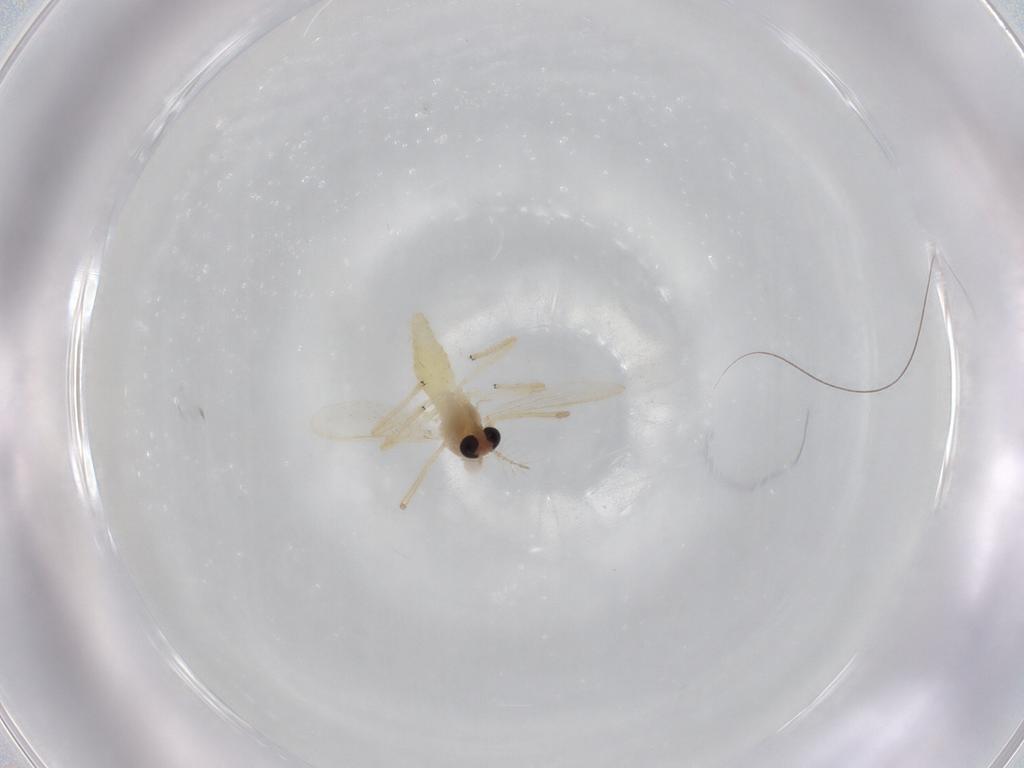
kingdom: Animalia
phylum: Arthropoda
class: Insecta
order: Diptera
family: Chironomidae
